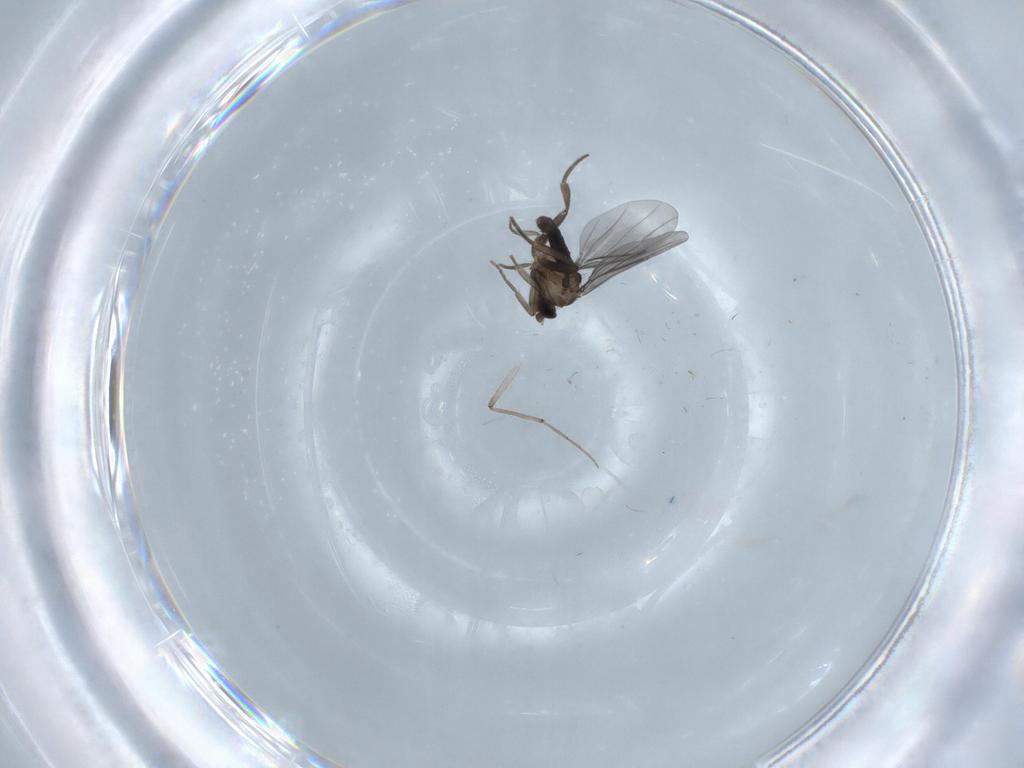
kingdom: Animalia
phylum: Arthropoda
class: Insecta
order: Diptera
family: Phoridae
